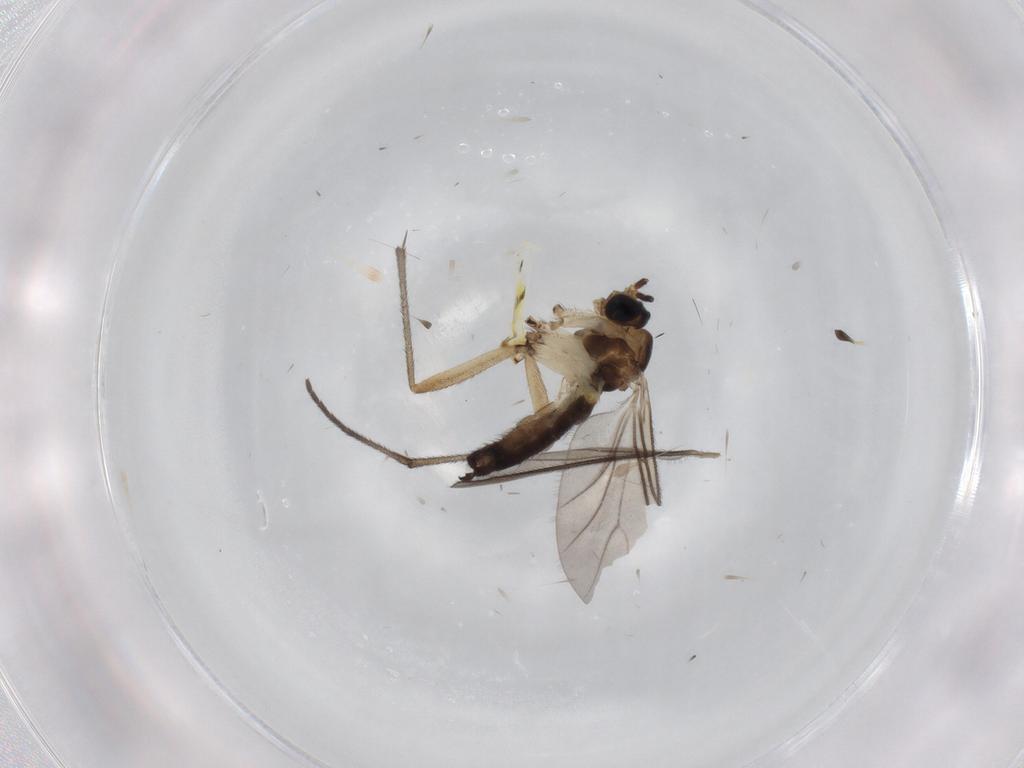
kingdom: Animalia
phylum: Arthropoda
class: Insecta
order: Diptera
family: Sciaridae
